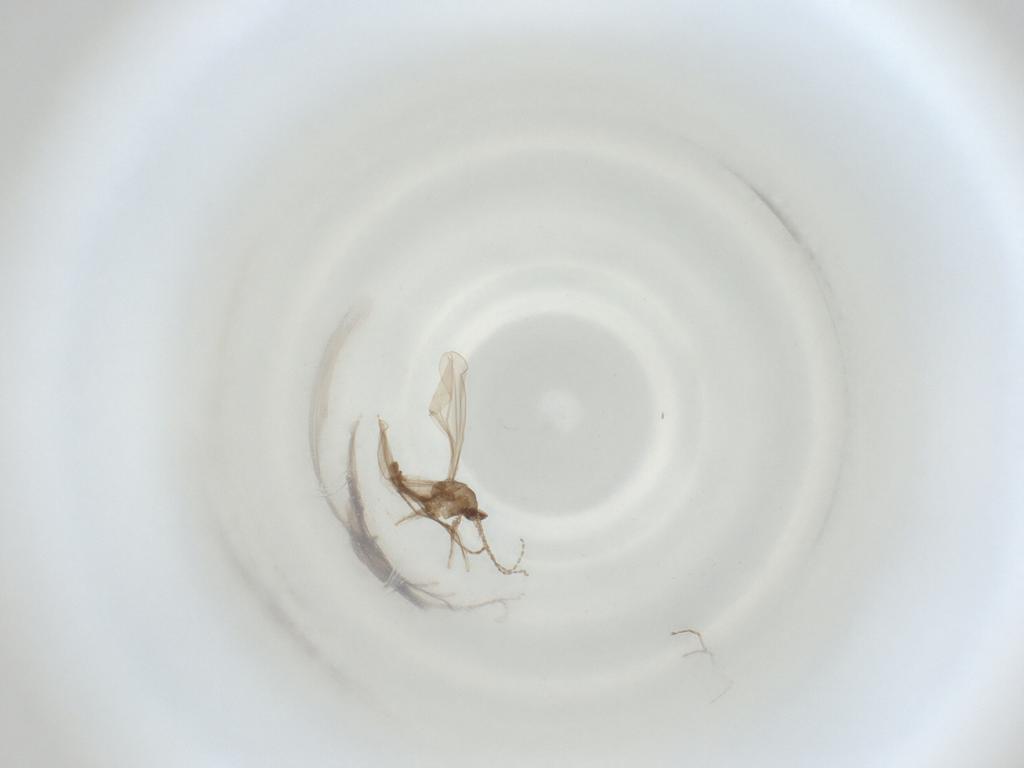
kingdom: Animalia
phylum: Arthropoda
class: Insecta
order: Diptera
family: Cecidomyiidae
